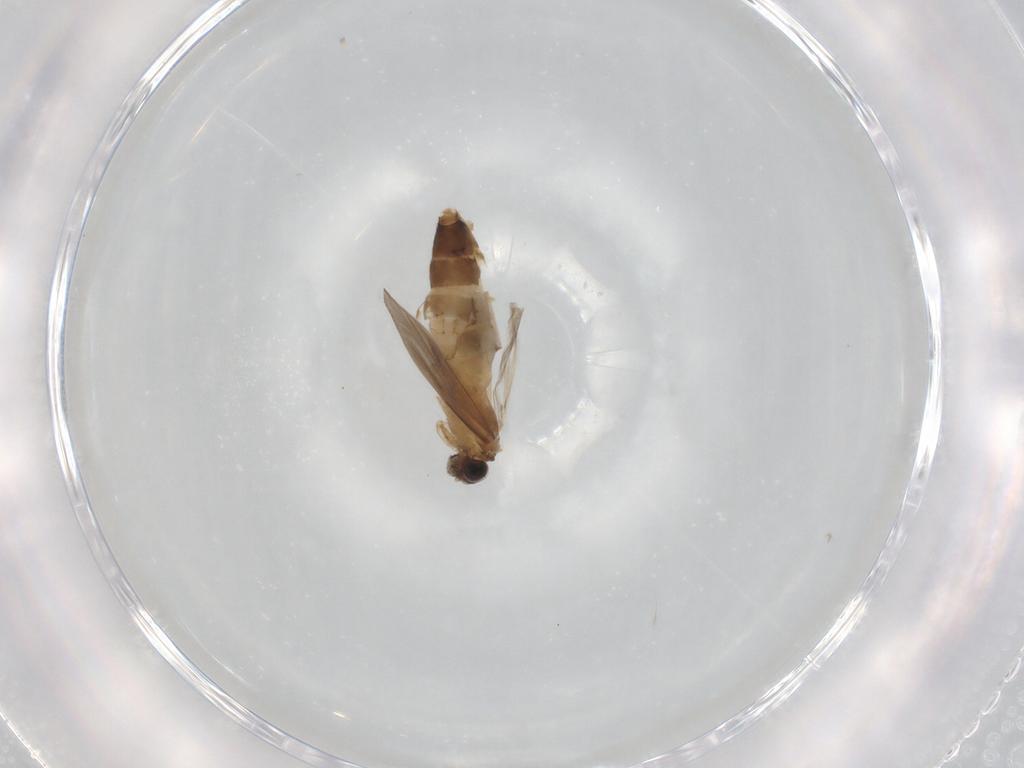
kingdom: Animalia
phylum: Arthropoda
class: Insecta
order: Trichoptera
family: Hydroptilidae
